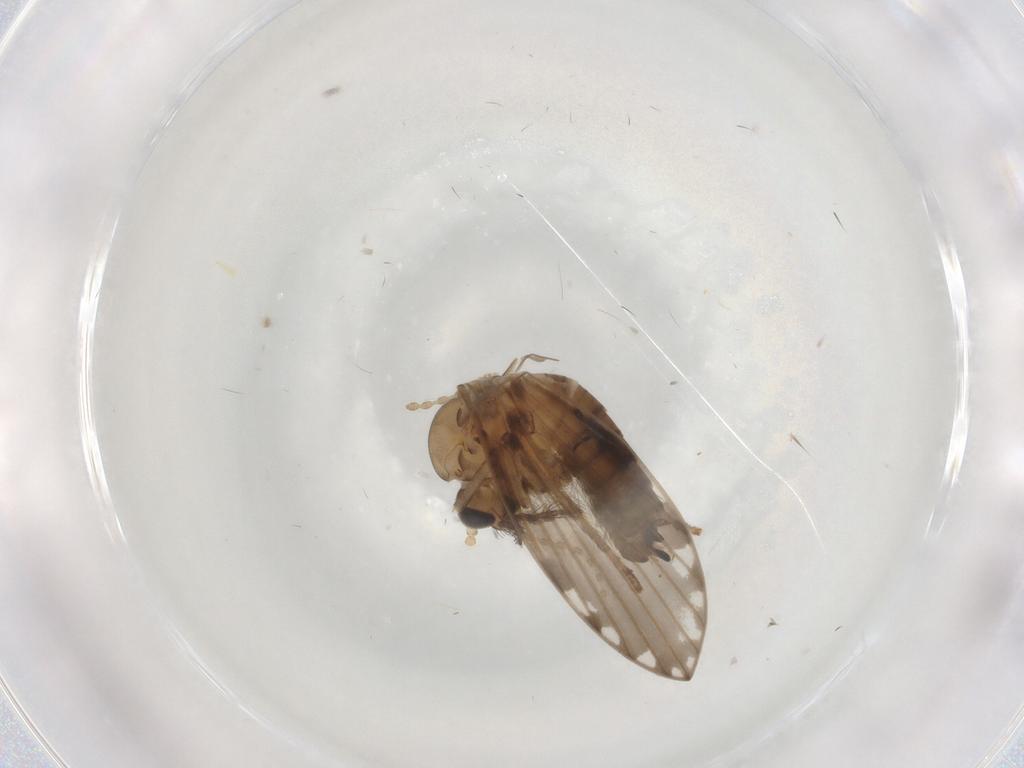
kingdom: Animalia
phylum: Arthropoda
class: Insecta
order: Diptera
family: Psychodidae
